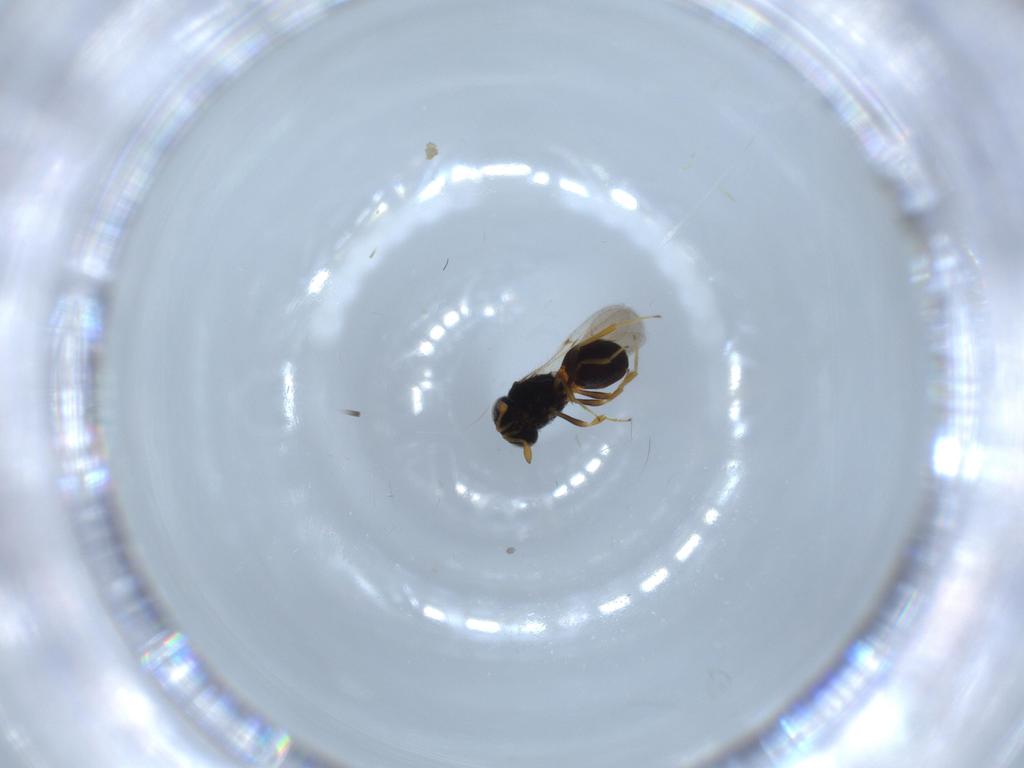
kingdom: Animalia
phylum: Arthropoda
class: Insecta
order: Hymenoptera
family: Scelionidae
